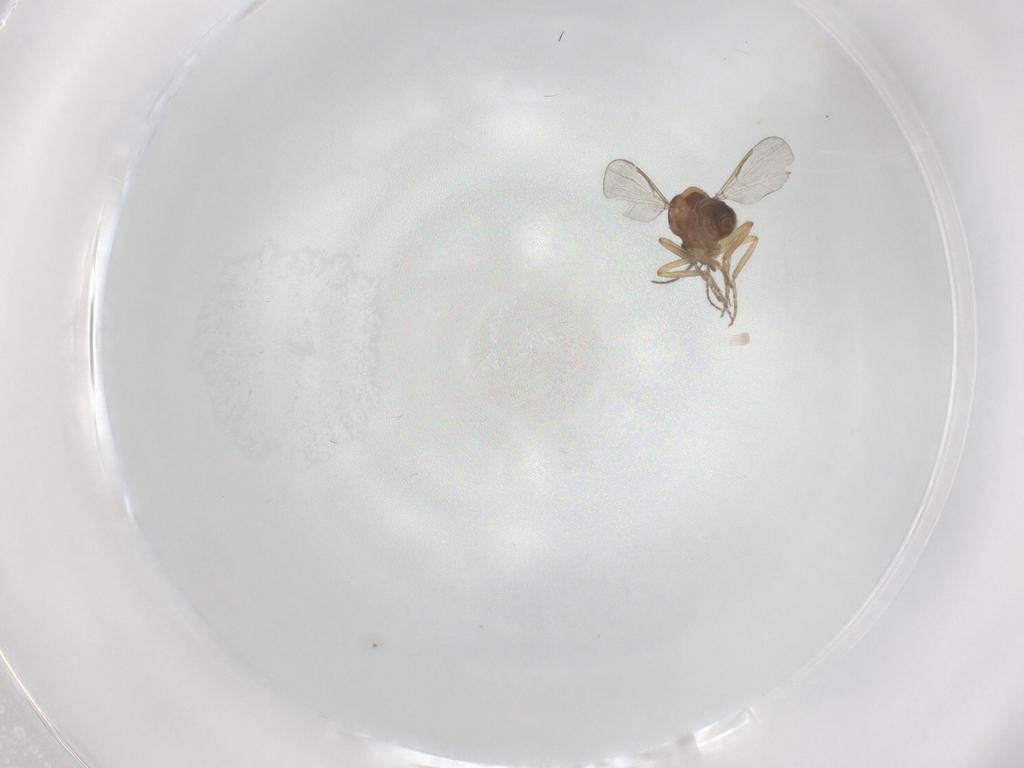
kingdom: Animalia
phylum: Arthropoda
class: Insecta
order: Diptera
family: Ceratopogonidae
